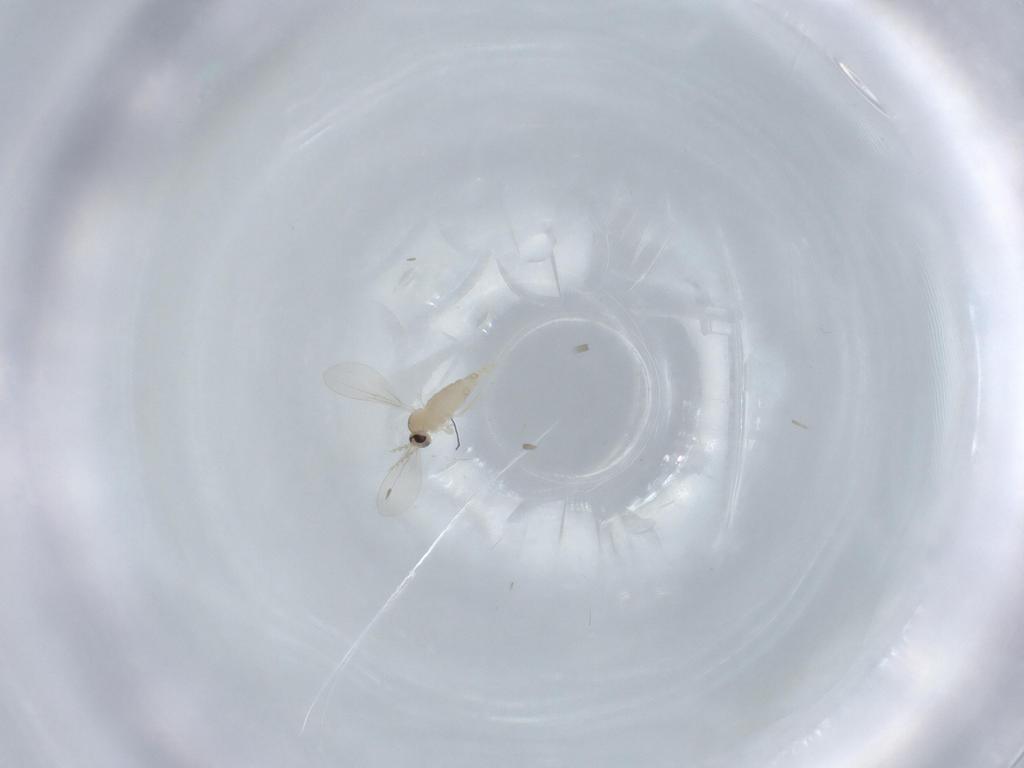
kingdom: Animalia
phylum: Arthropoda
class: Insecta
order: Diptera
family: Cecidomyiidae
